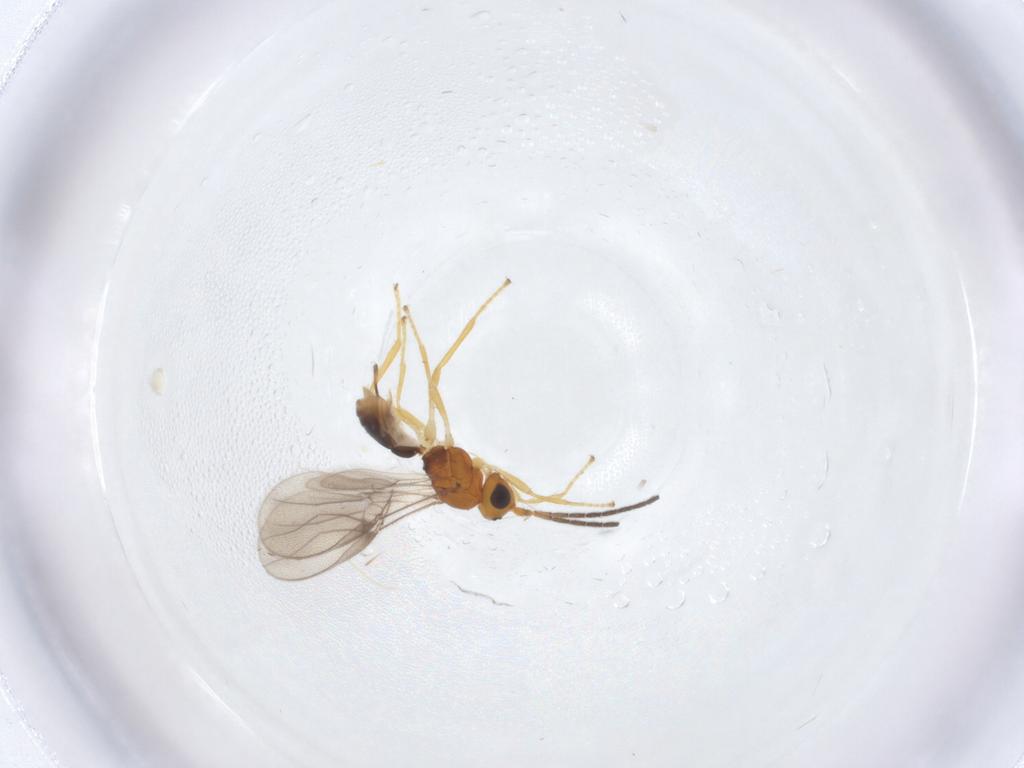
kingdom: Animalia
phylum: Arthropoda
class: Insecta
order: Hymenoptera
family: Braconidae
